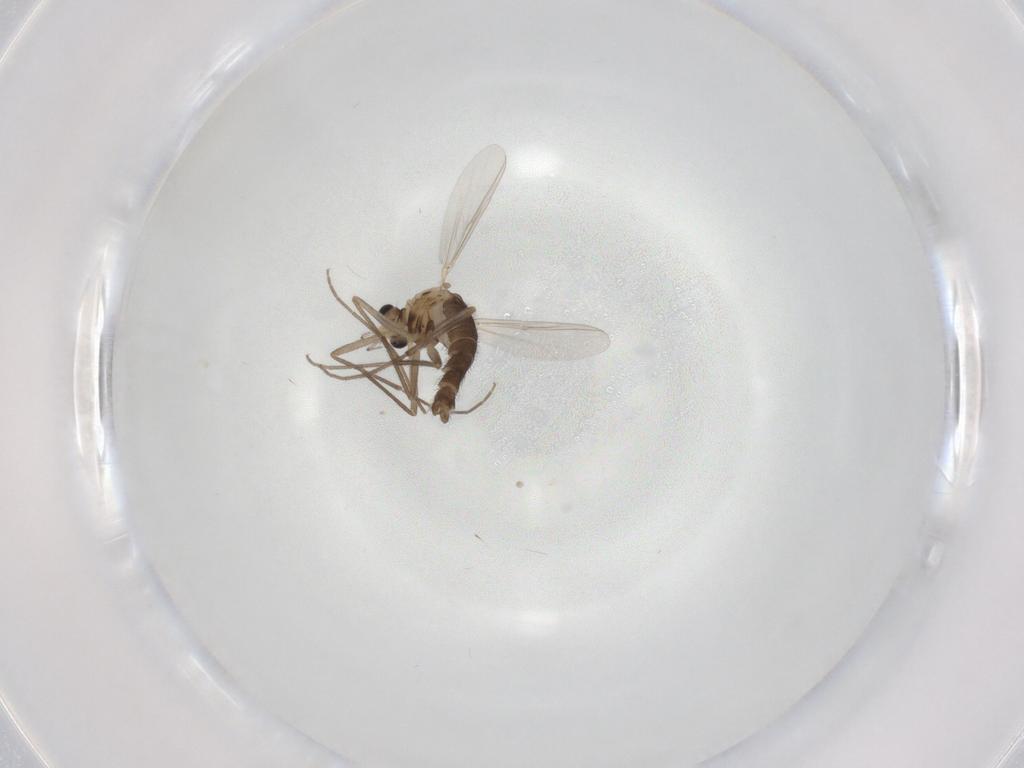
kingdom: Animalia
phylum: Arthropoda
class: Insecta
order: Diptera
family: Chironomidae
